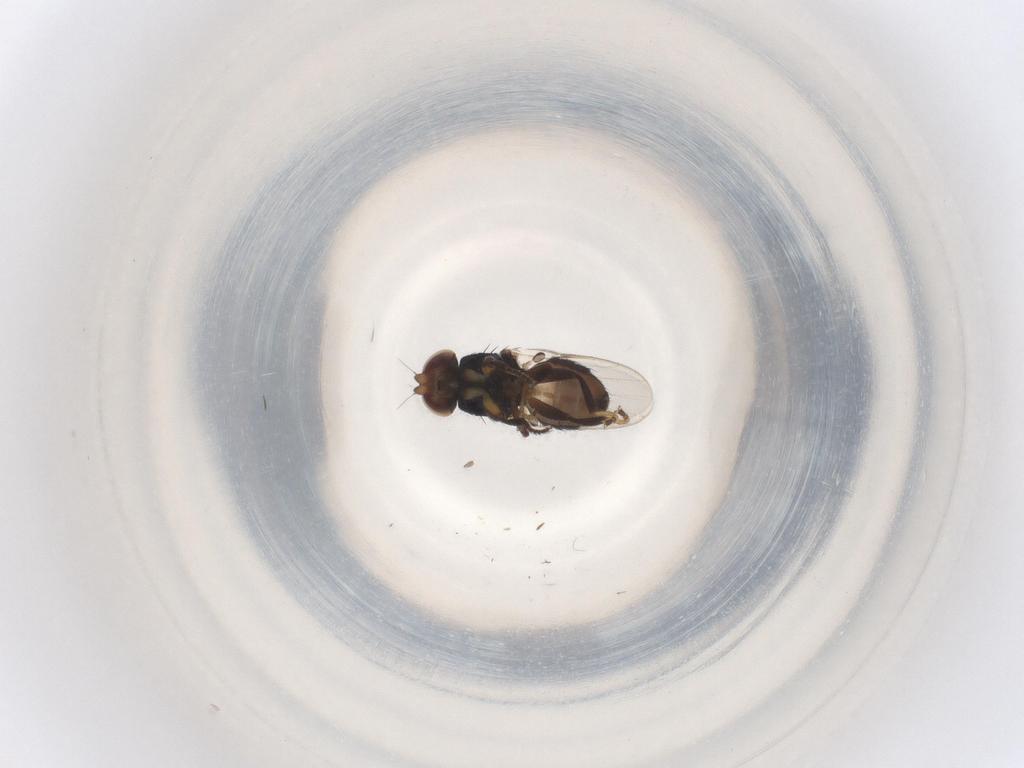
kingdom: Animalia
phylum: Arthropoda
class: Insecta
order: Diptera
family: Chloropidae
